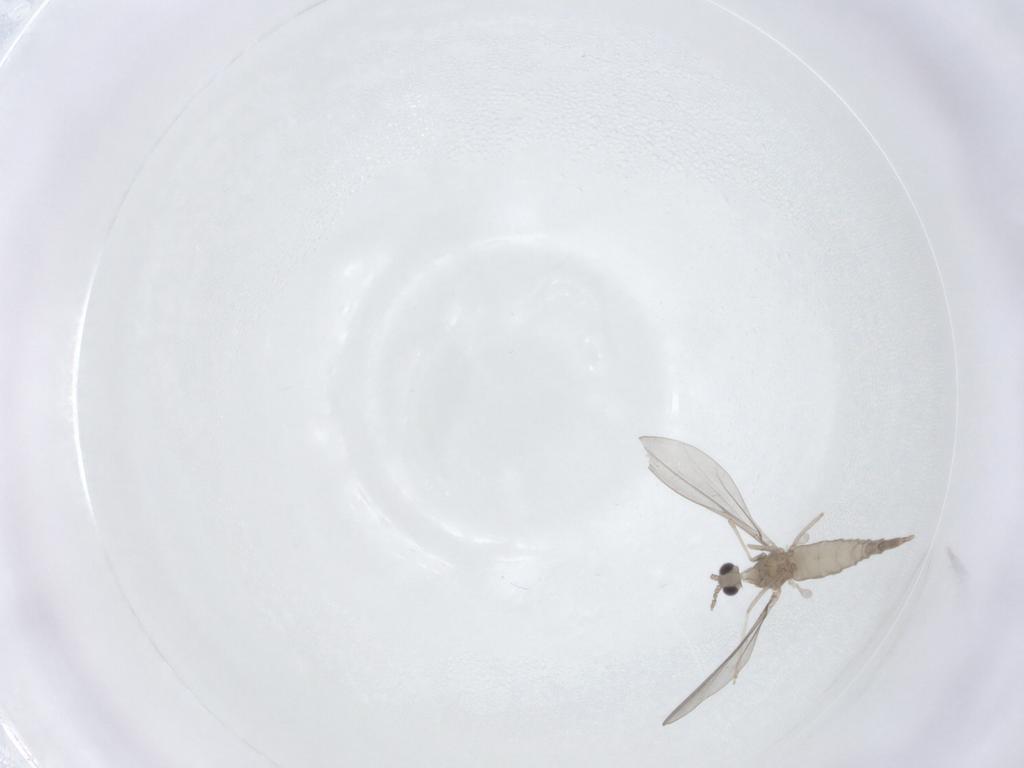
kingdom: Animalia
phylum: Arthropoda
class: Insecta
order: Diptera
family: Cecidomyiidae
